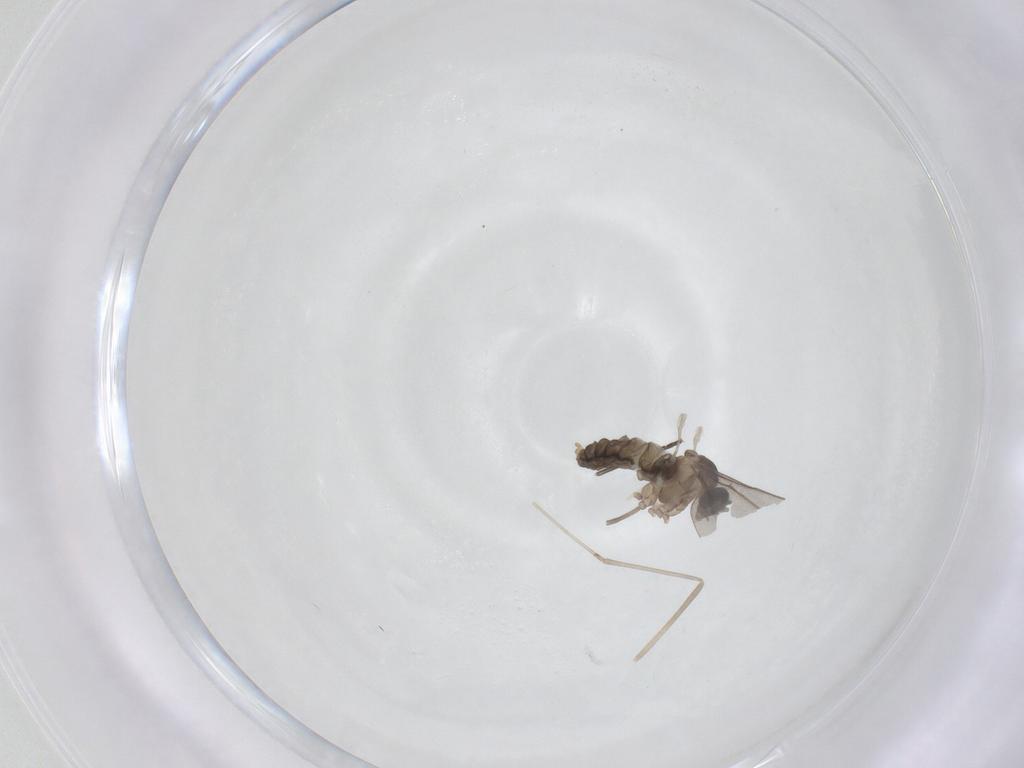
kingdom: Animalia
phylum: Arthropoda
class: Insecta
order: Diptera
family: Cecidomyiidae
